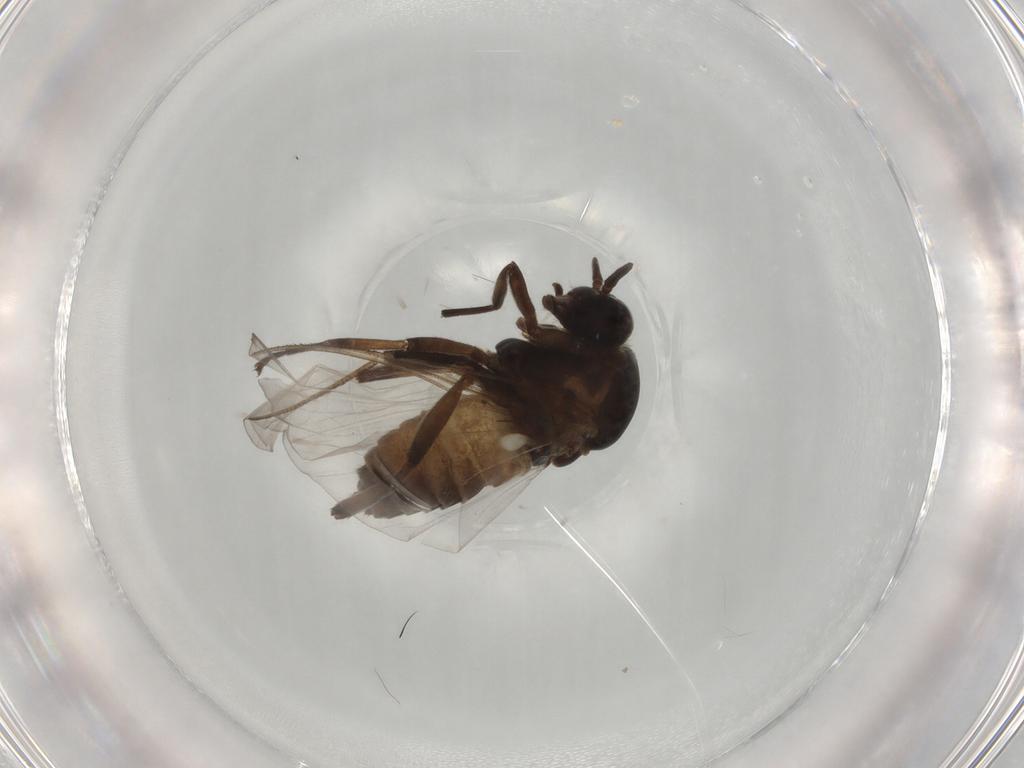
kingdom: Animalia
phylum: Arthropoda
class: Insecta
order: Diptera
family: Simuliidae
